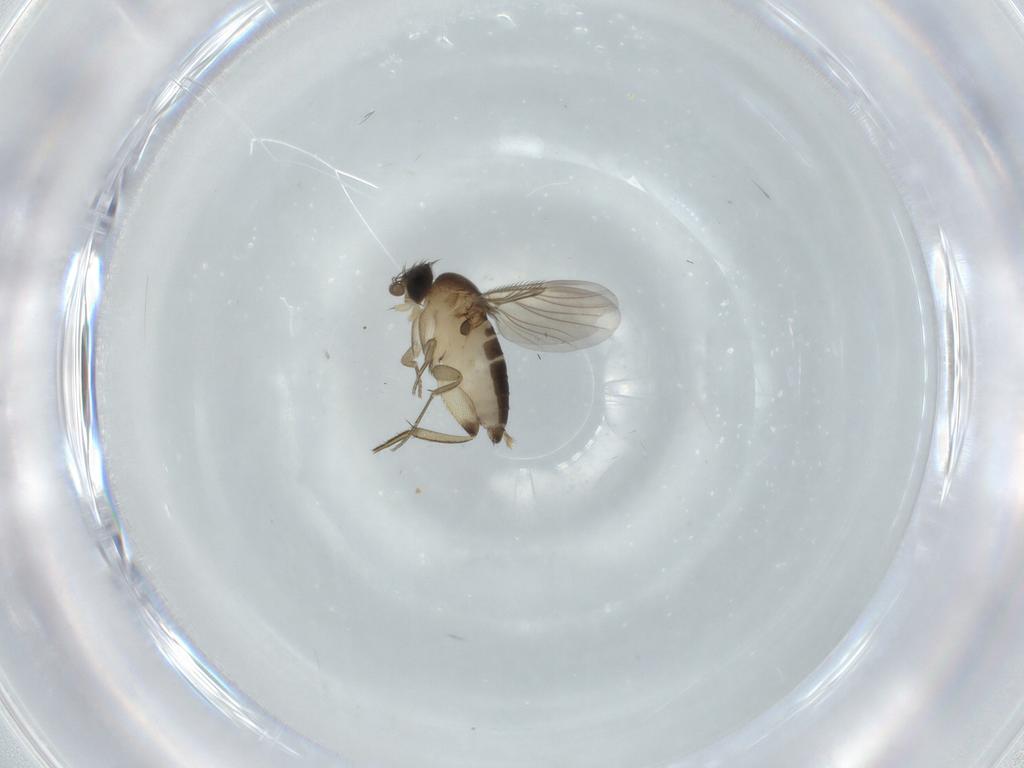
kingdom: Animalia
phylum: Arthropoda
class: Insecta
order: Diptera
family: Phoridae
